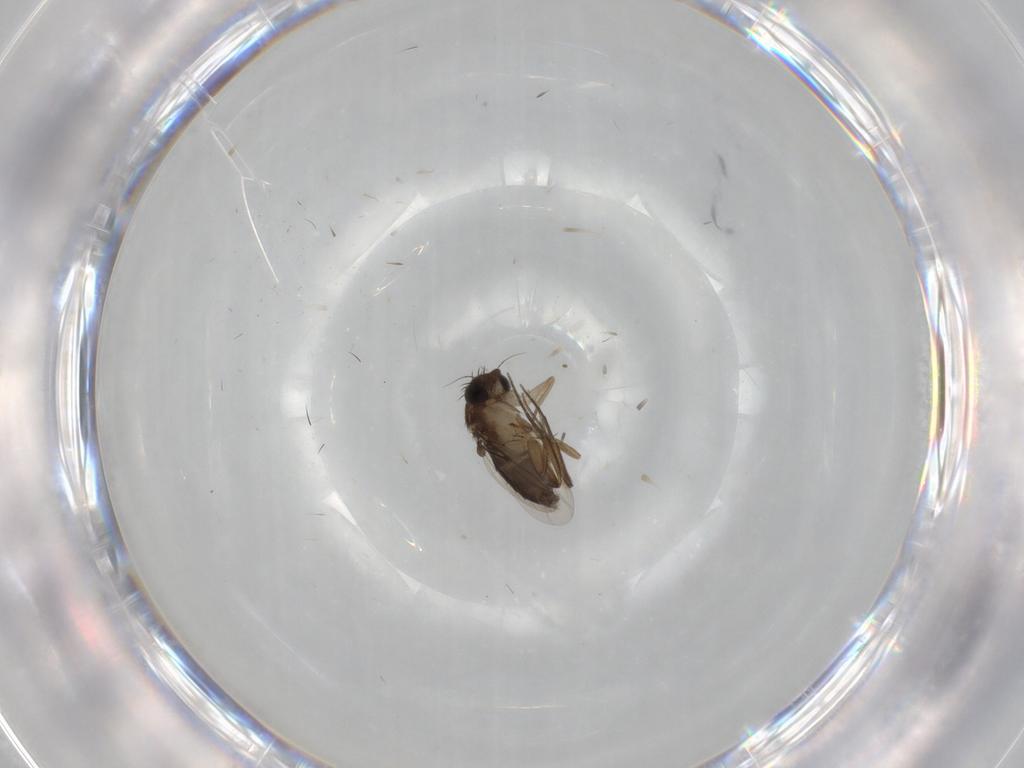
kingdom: Animalia
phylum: Arthropoda
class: Insecta
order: Diptera
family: Phoridae
